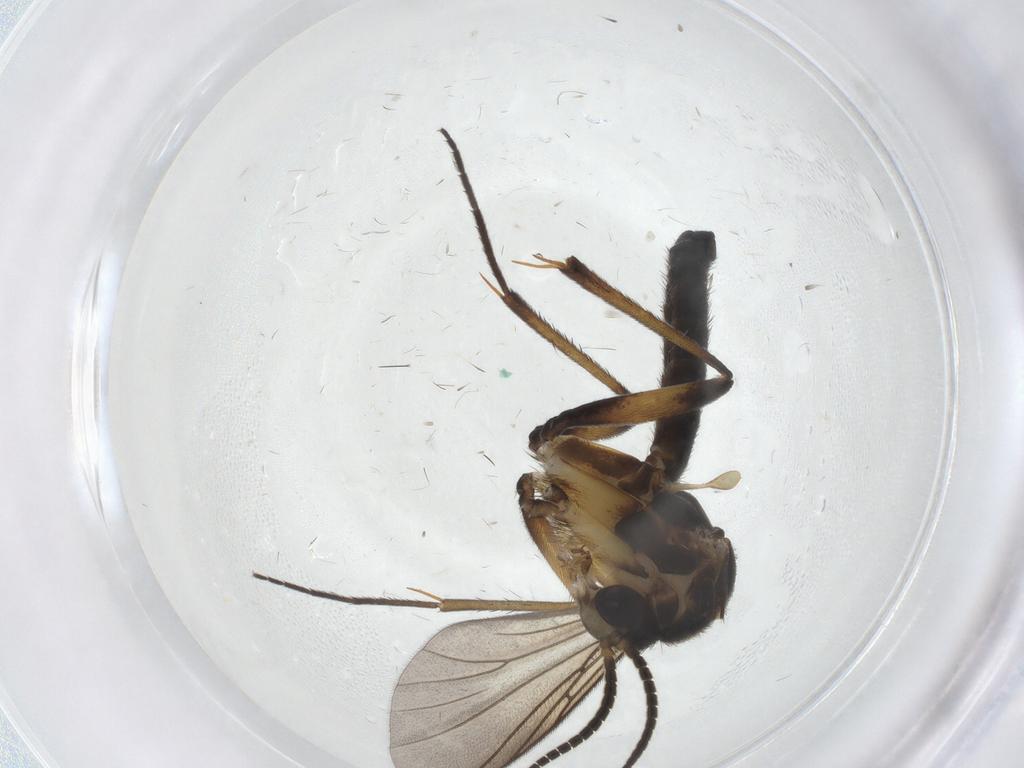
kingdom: Animalia
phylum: Arthropoda
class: Insecta
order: Diptera
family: Mycetophilidae
